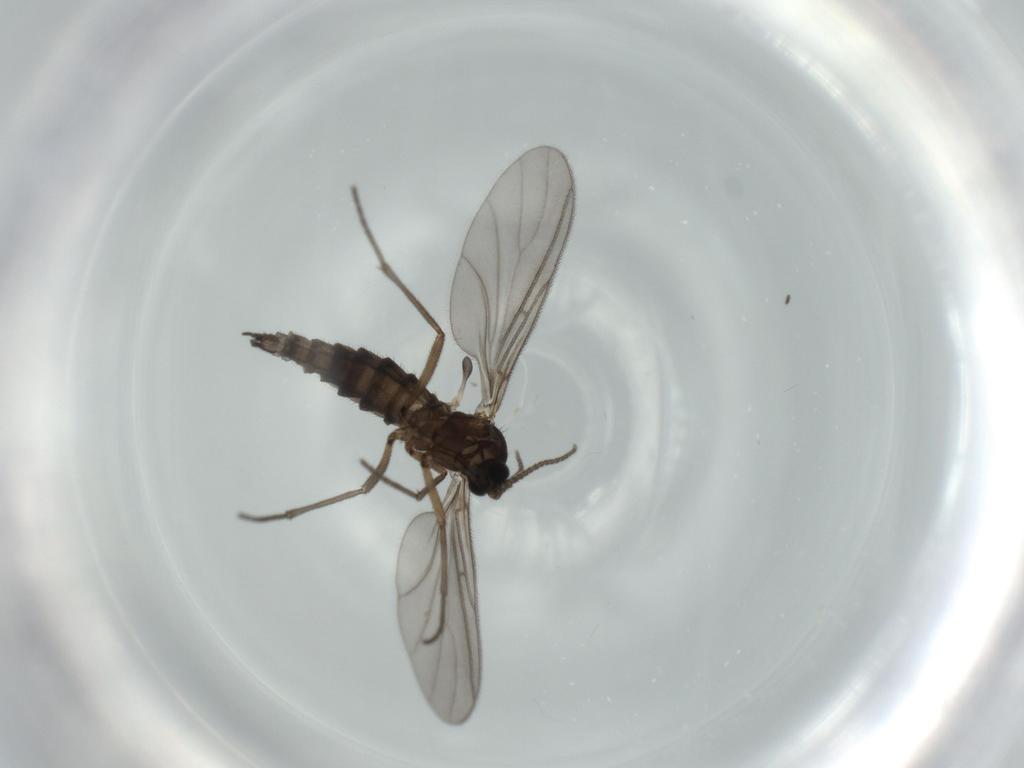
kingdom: Animalia
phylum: Arthropoda
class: Insecta
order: Diptera
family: Sciaridae
